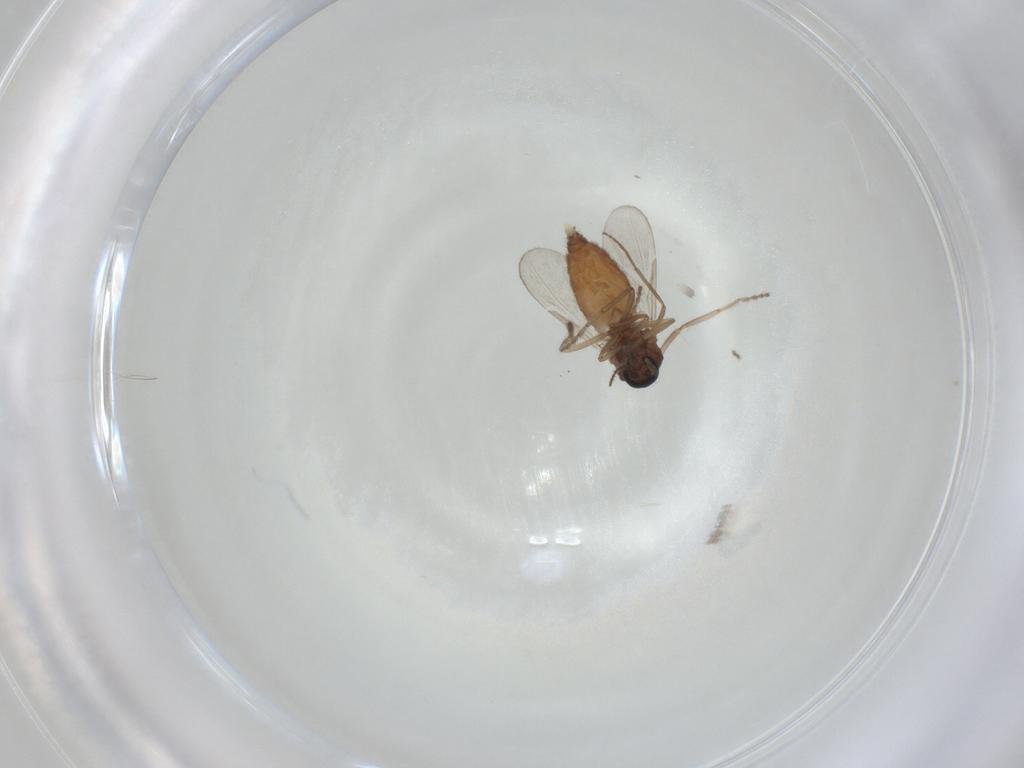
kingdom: Animalia
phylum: Arthropoda
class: Insecta
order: Diptera
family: Ceratopogonidae
